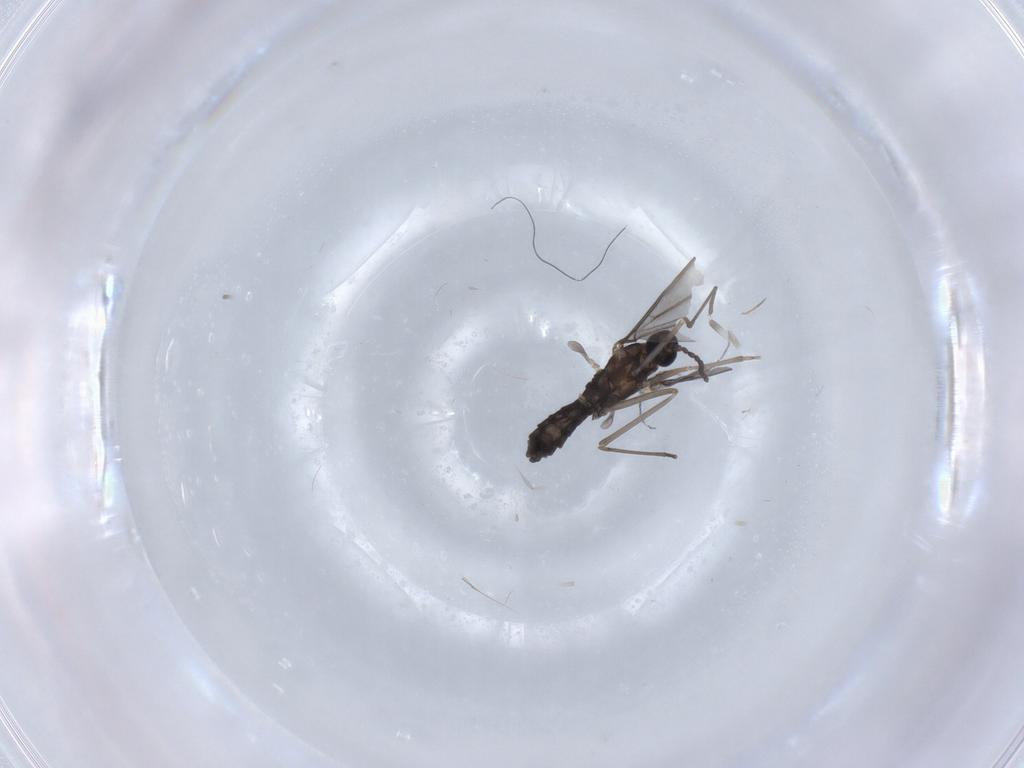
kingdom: Animalia
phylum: Arthropoda
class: Insecta
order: Diptera
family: Cecidomyiidae
